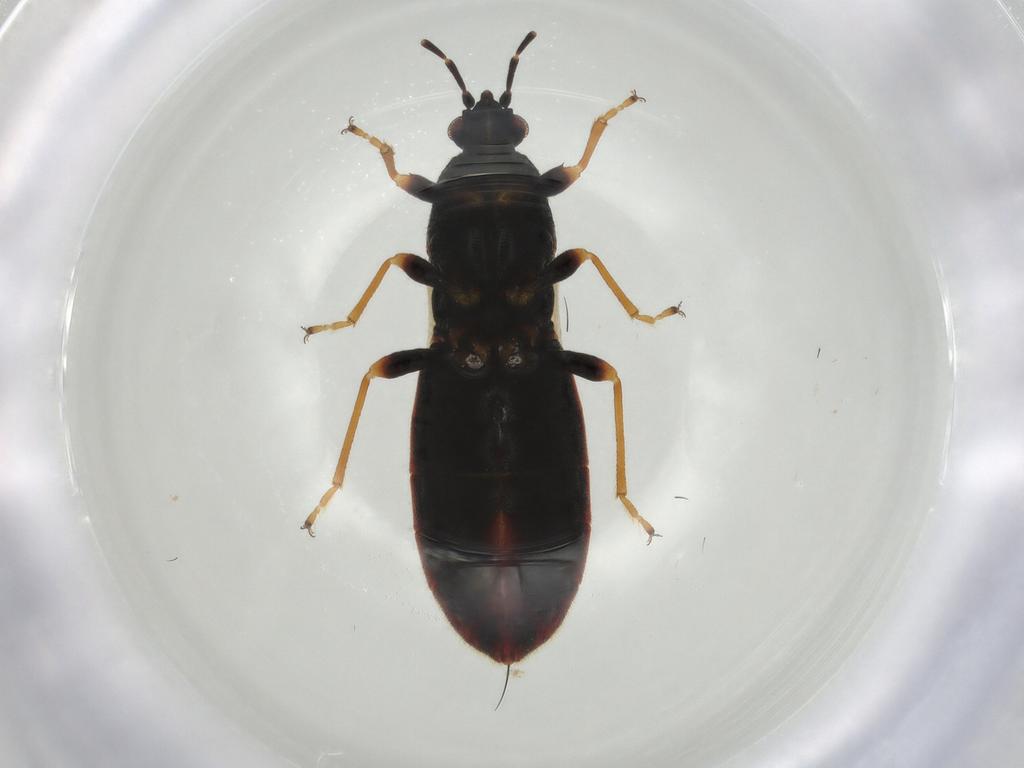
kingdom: Animalia
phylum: Arthropoda
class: Insecta
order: Hemiptera
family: Blissidae
